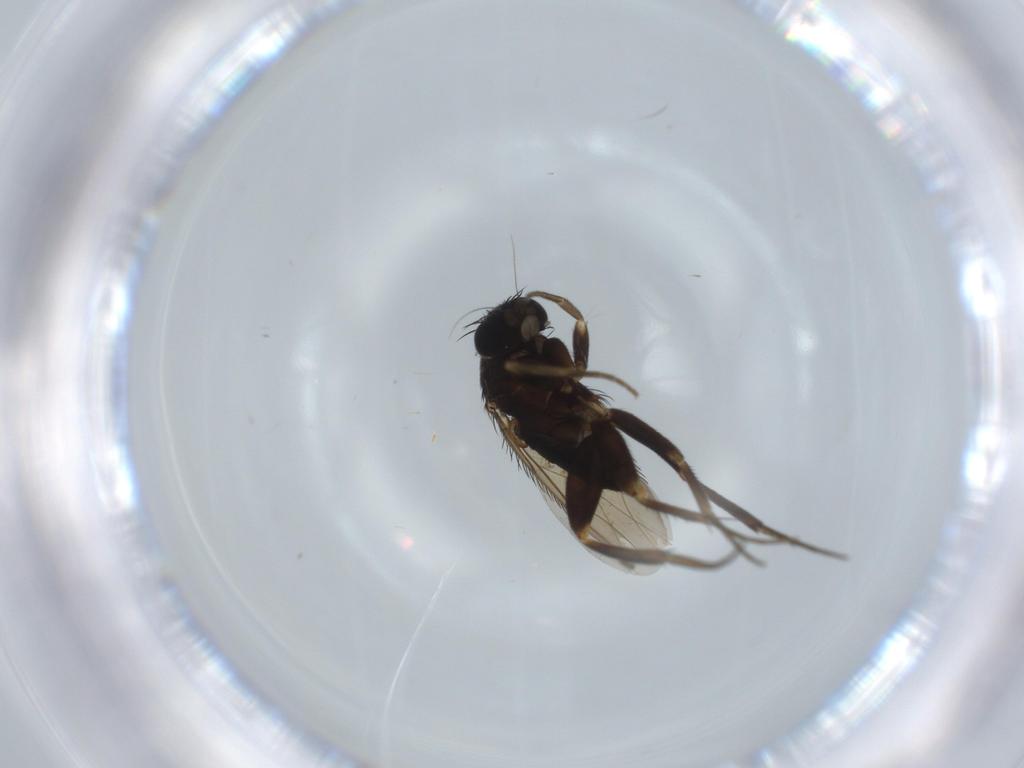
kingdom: Animalia
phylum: Arthropoda
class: Insecta
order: Diptera
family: Phoridae
